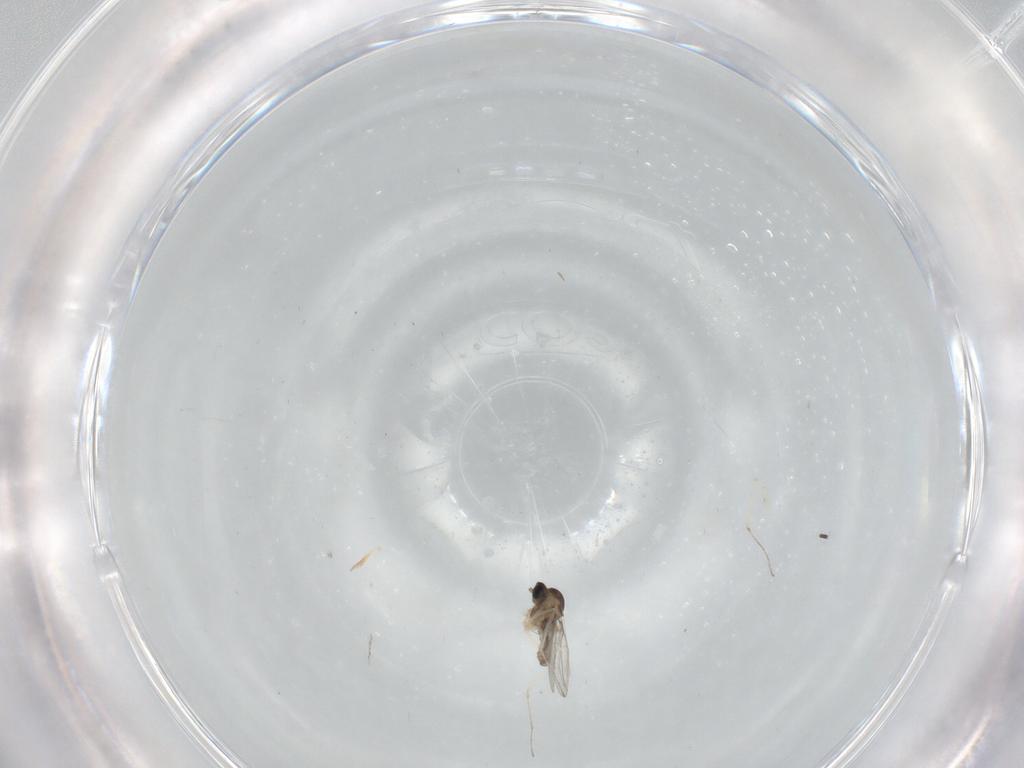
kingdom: Animalia
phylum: Arthropoda
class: Insecta
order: Diptera
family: Cecidomyiidae
